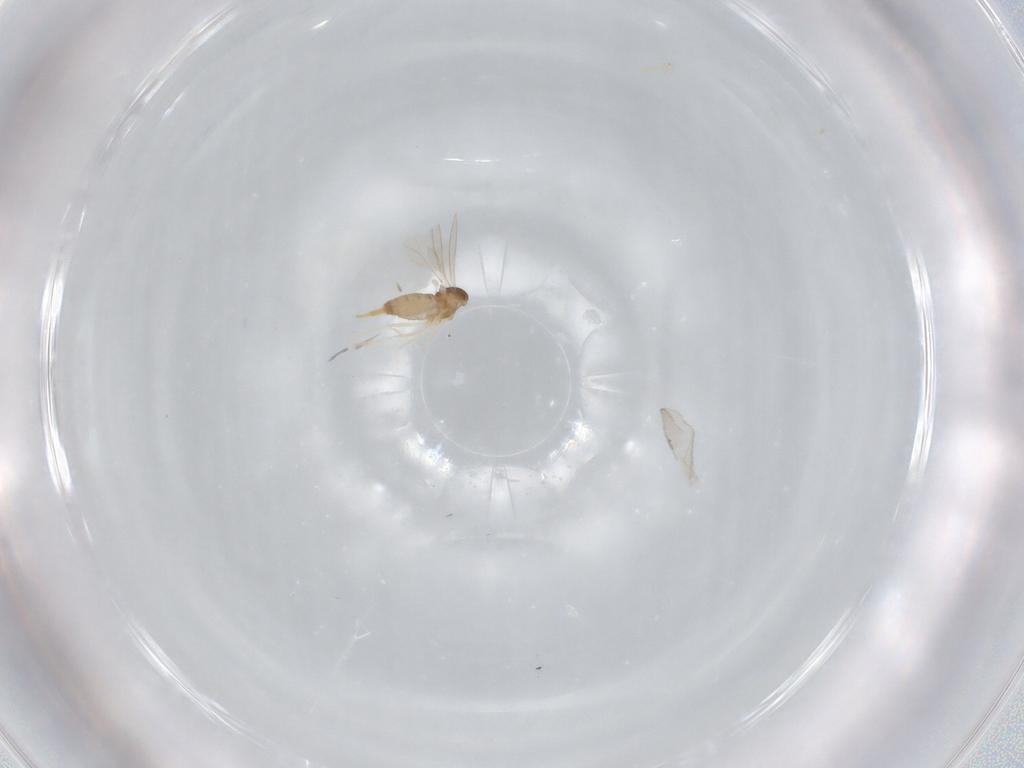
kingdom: Animalia
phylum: Arthropoda
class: Insecta
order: Diptera
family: Cecidomyiidae
